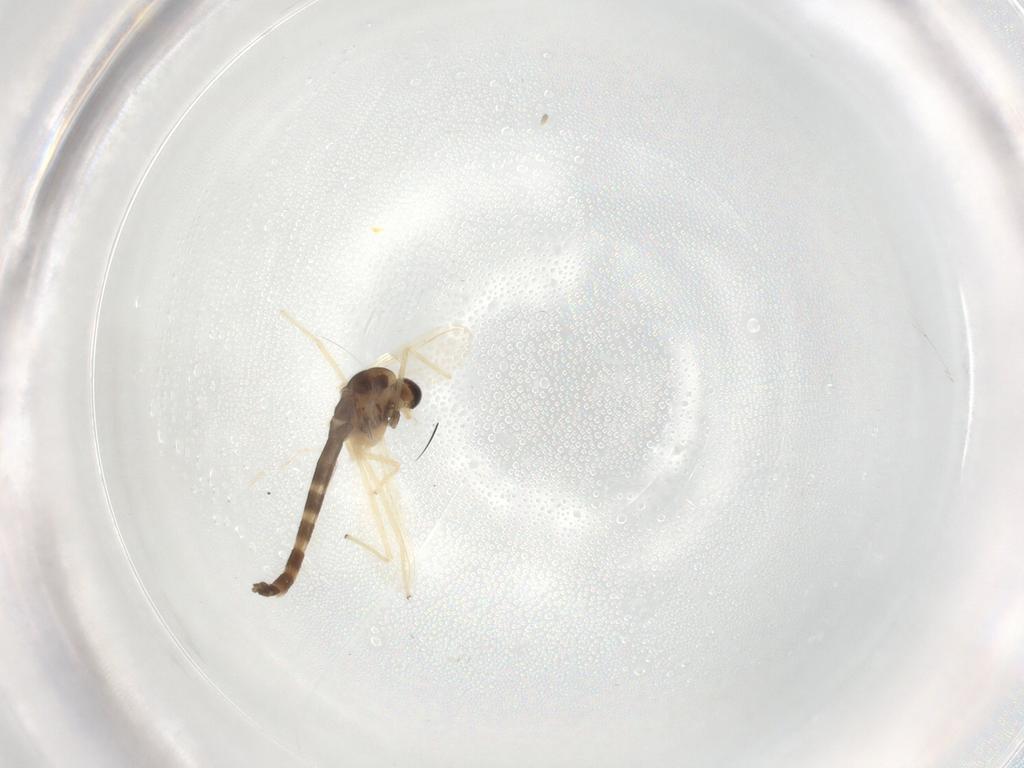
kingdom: Animalia
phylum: Arthropoda
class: Insecta
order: Diptera
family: Chironomidae
